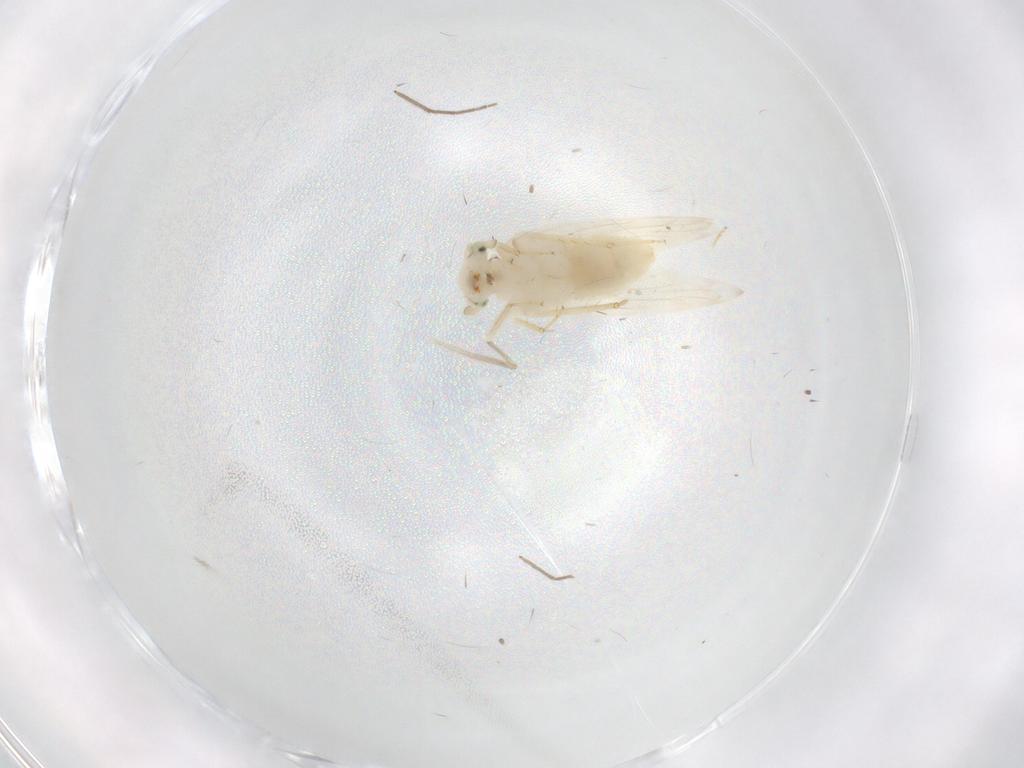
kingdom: Animalia
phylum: Arthropoda
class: Insecta
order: Psocodea
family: Lepidopsocidae
